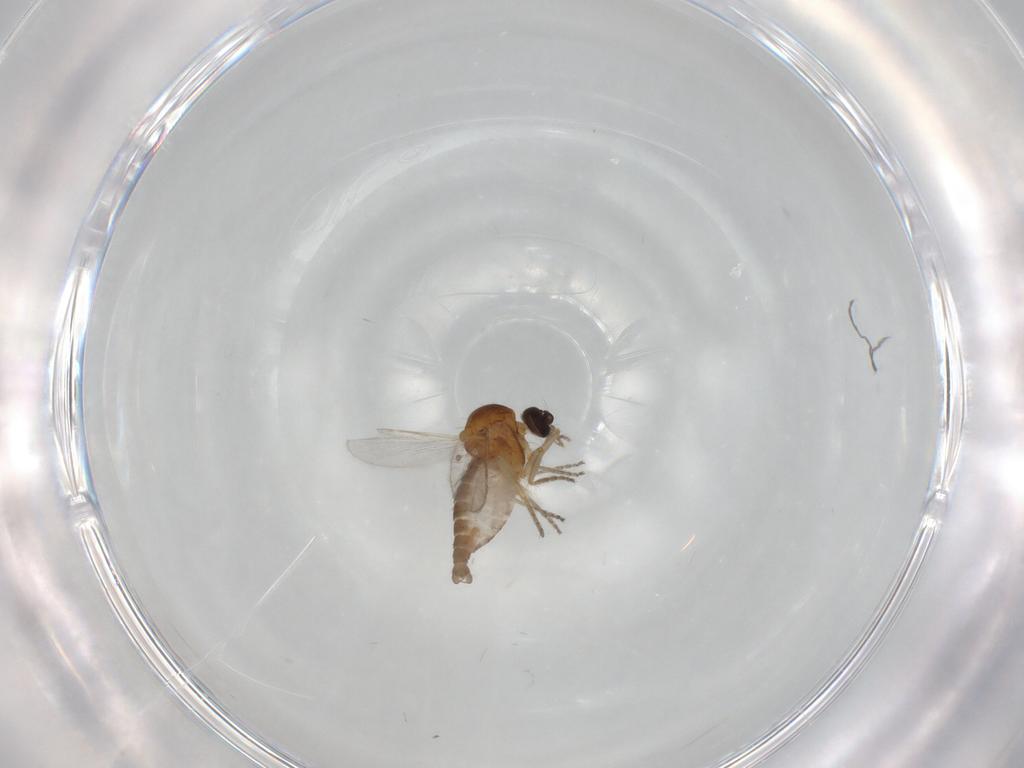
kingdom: Animalia
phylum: Arthropoda
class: Insecta
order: Diptera
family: Ceratopogonidae
